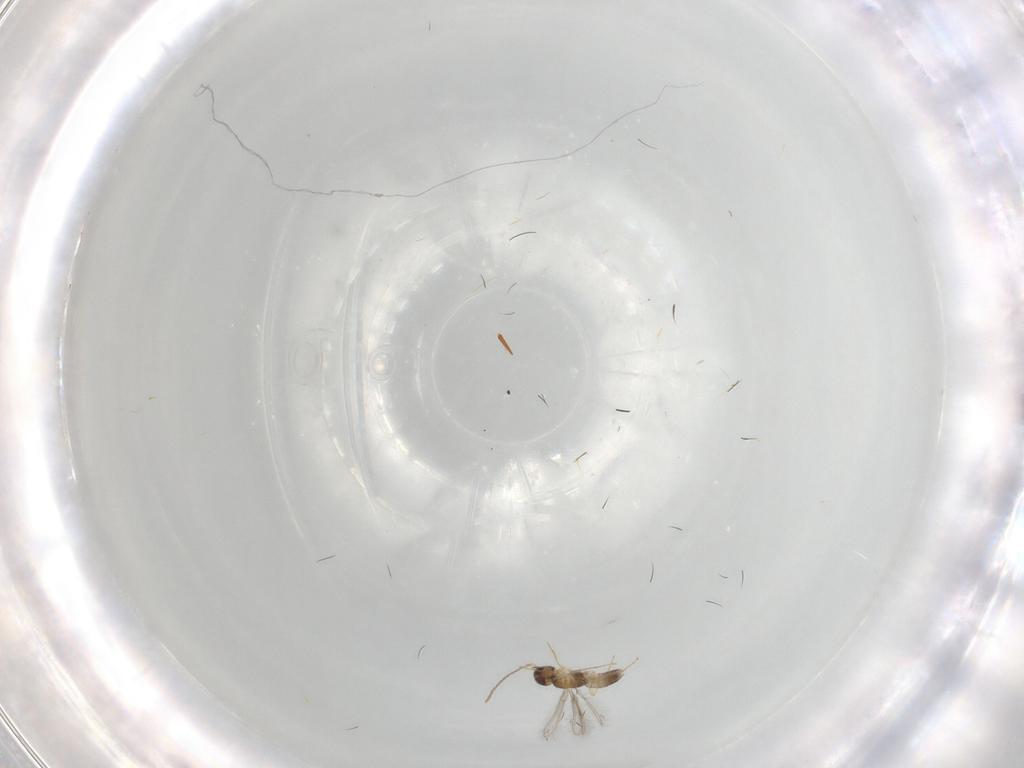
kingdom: Animalia
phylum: Arthropoda
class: Insecta
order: Hymenoptera
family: Mymaridae
